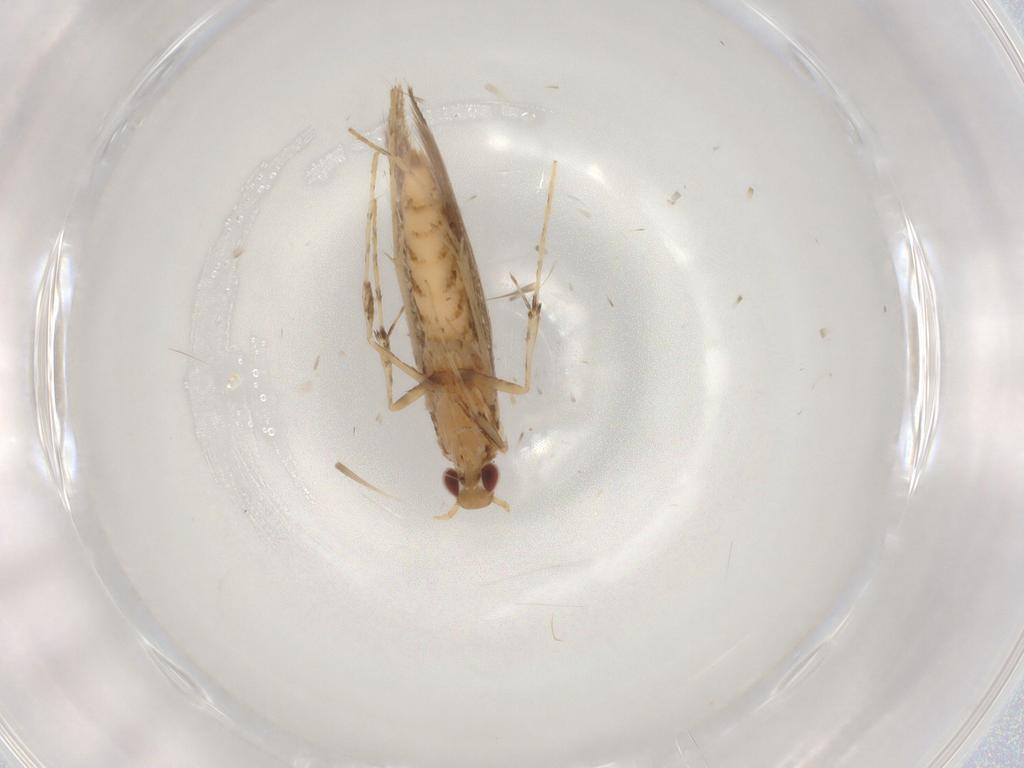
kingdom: Animalia
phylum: Arthropoda
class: Insecta
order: Lepidoptera
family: Gracillariidae
